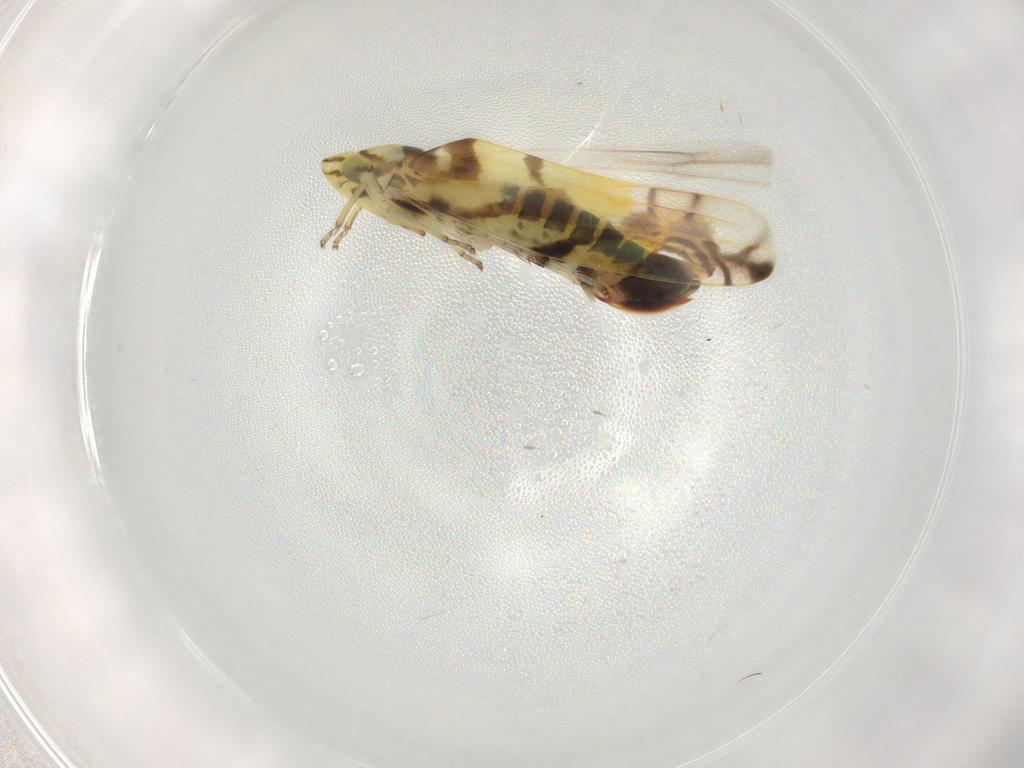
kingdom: Animalia
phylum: Arthropoda
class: Insecta
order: Hemiptera
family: Cicadellidae
